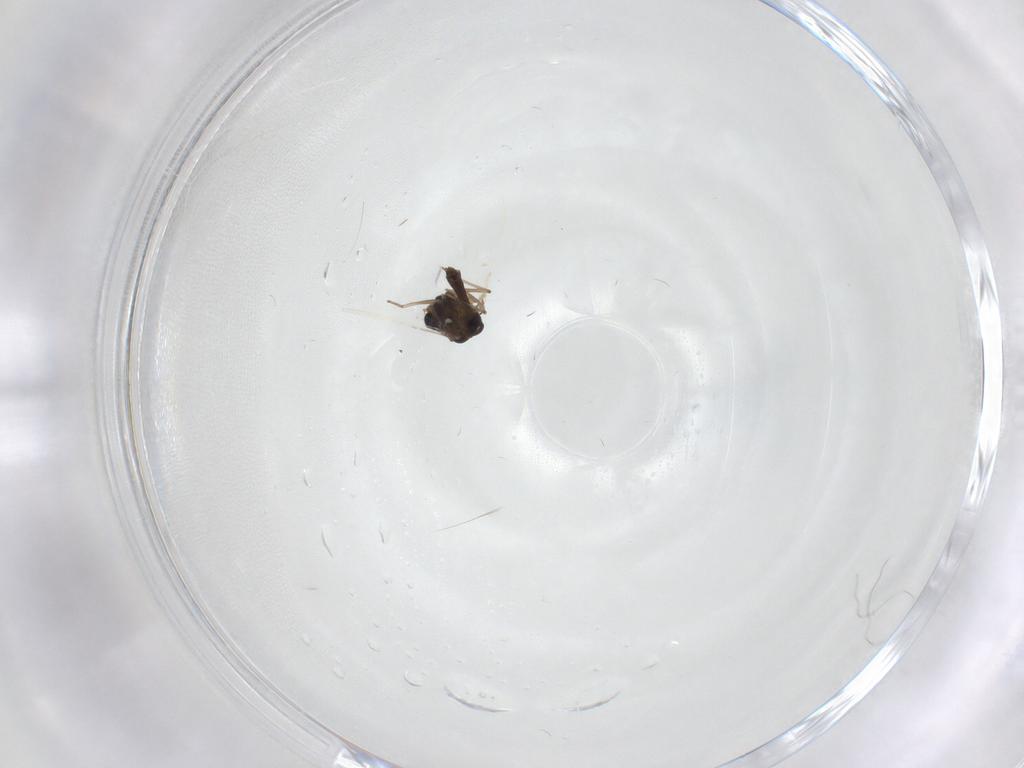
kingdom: Animalia
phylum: Arthropoda
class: Insecta
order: Diptera
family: Chironomidae
